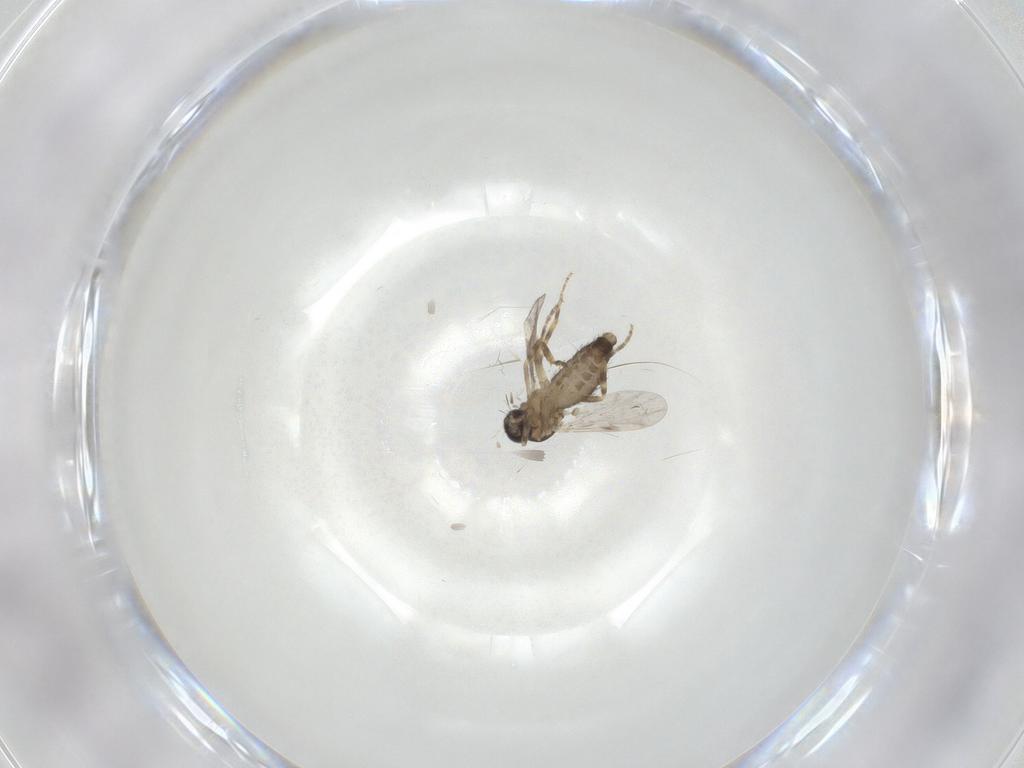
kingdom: Animalia
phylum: Arthropoda
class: Insecta
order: Diptera
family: Ceratopogonidae
